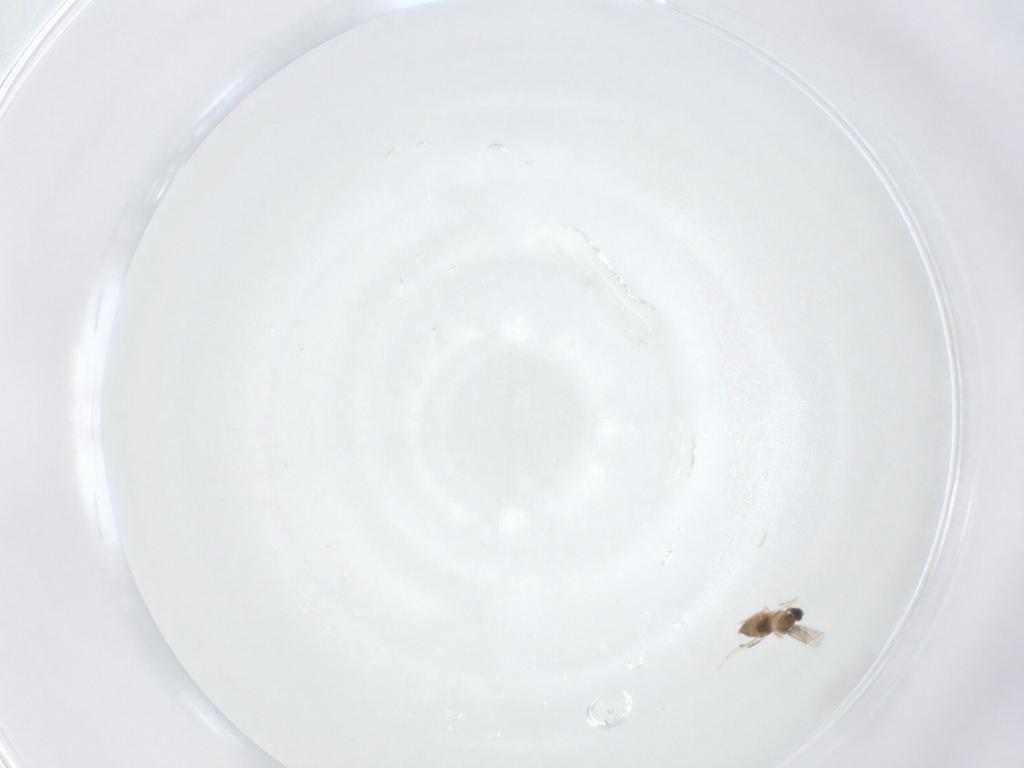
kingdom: Animalia
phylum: Arthropoda
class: Insecta
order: Diptera
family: Cecidomyiidae
